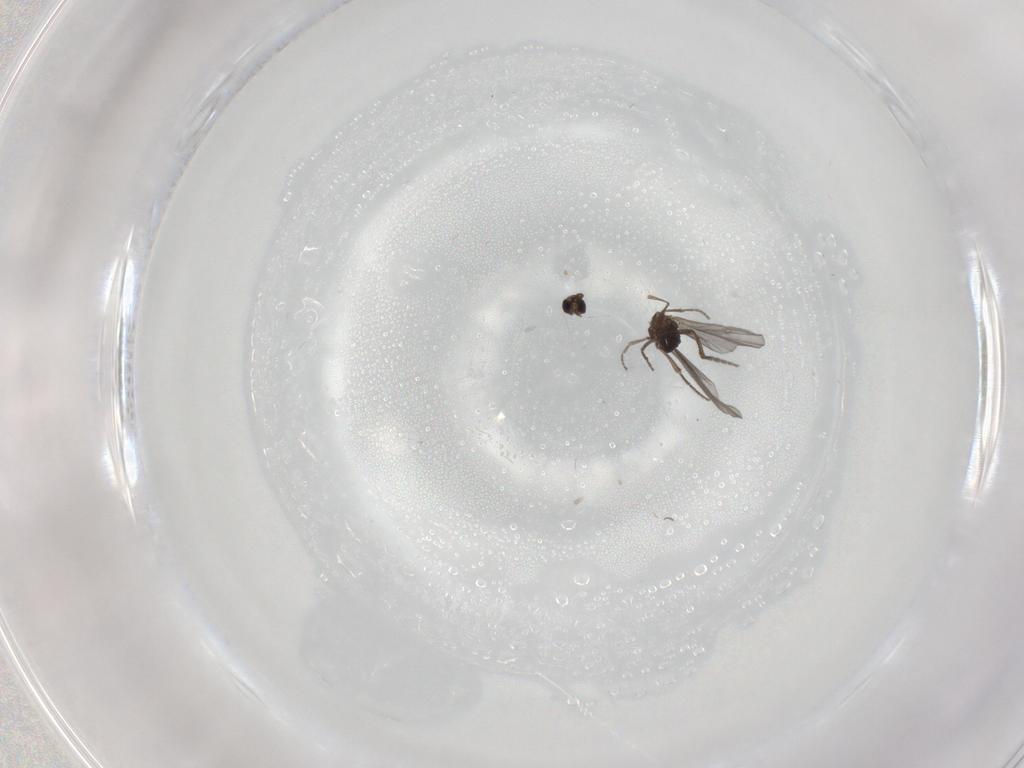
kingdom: Animalia
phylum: Arthropoda
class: Insecta
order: Diptera
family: Phoridae
